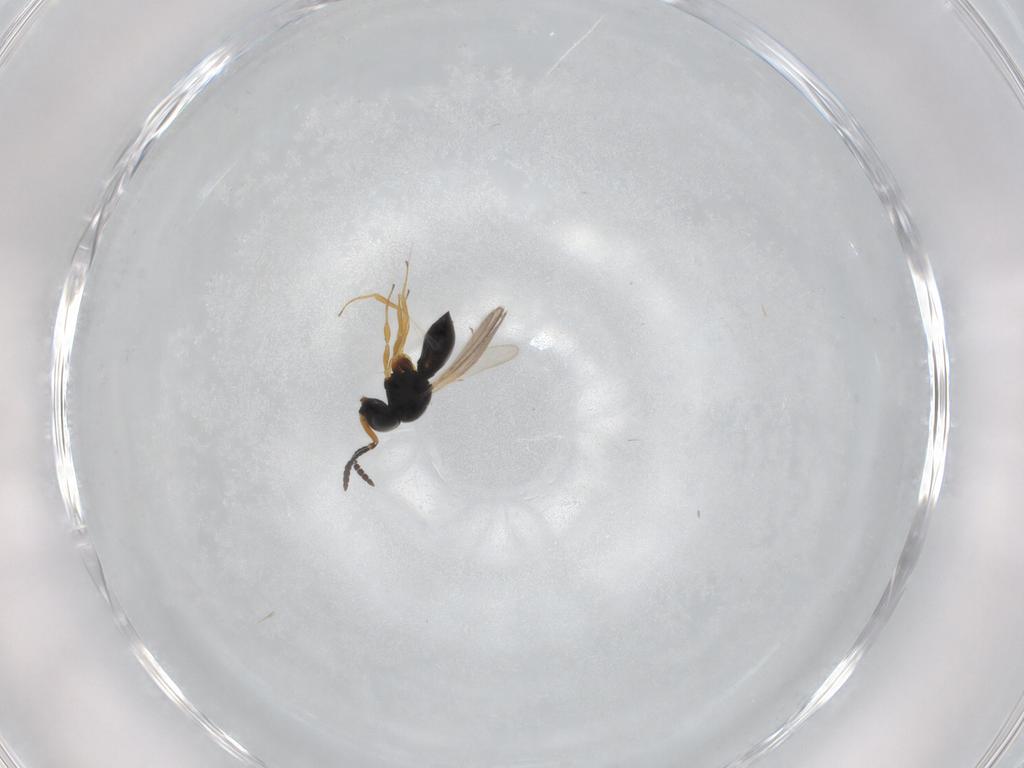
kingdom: Animalia
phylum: Arthropoda
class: Insecta
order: Hymenoptera
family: Scelionidae
